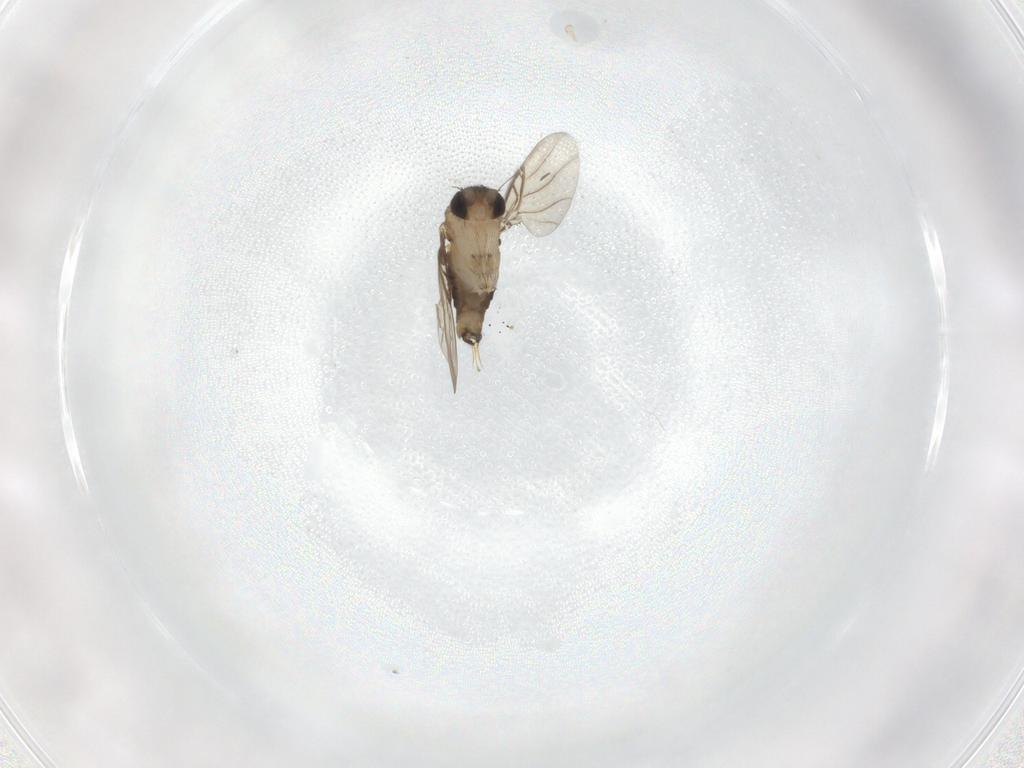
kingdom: Animalia
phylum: Arthropoda
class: Insecta
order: Diptera
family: Phoridae
